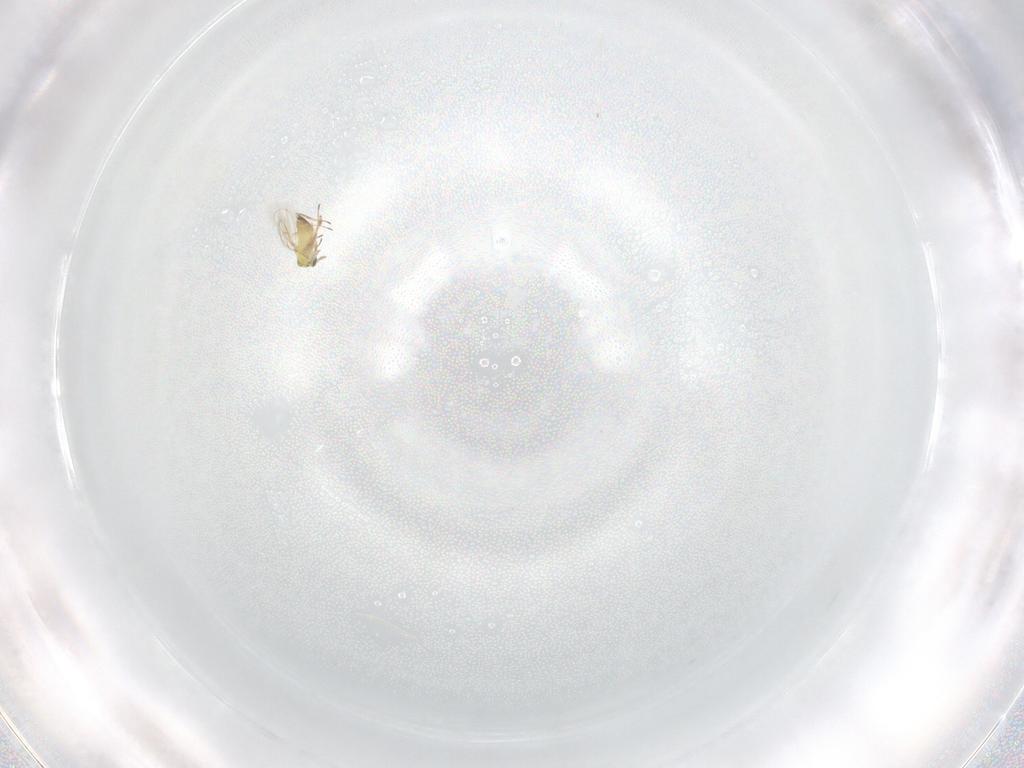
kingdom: Animalia
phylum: Arthropoda
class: Insecta
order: Hymenoptera
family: Trichogrammatidae
